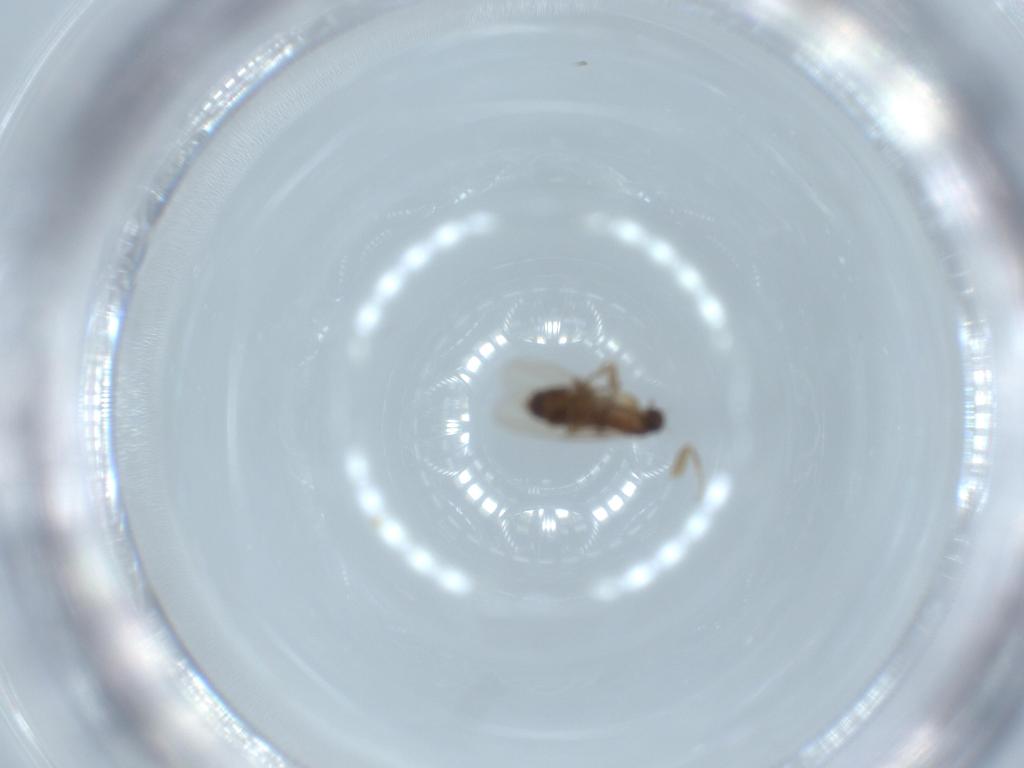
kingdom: Animalia
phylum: Arthropoda
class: Insecta
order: Diptera
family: Phoridae
